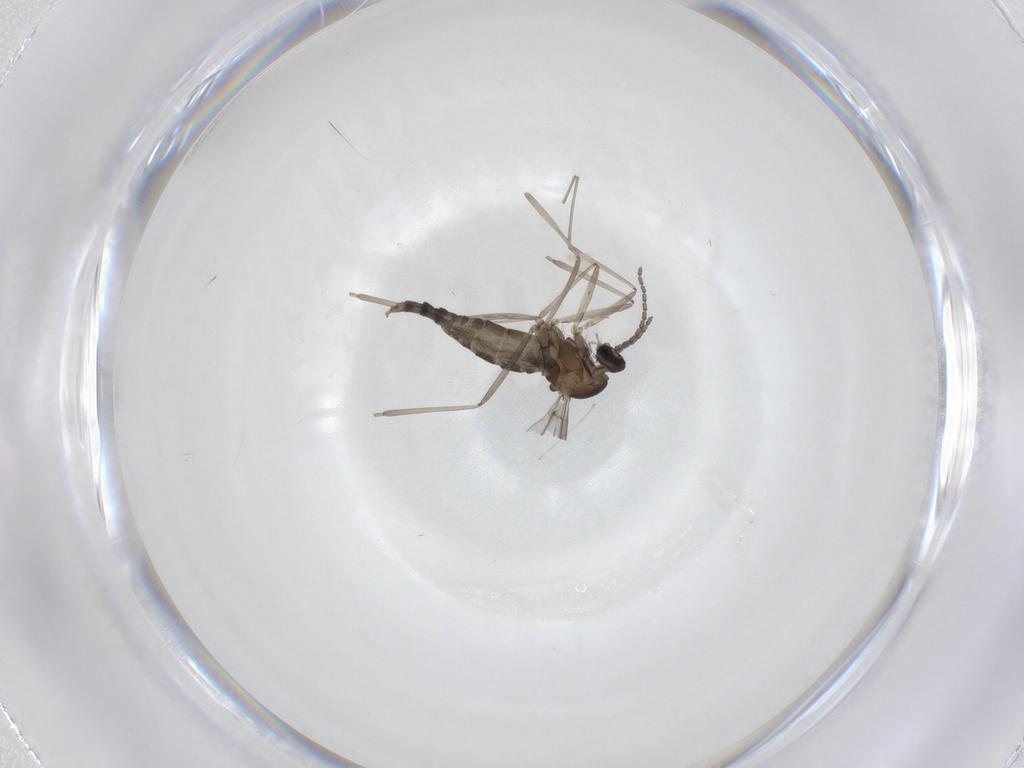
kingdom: Animalia
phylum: Arthropoda
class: Insecta
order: Diptera
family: Cecidomyiidae
